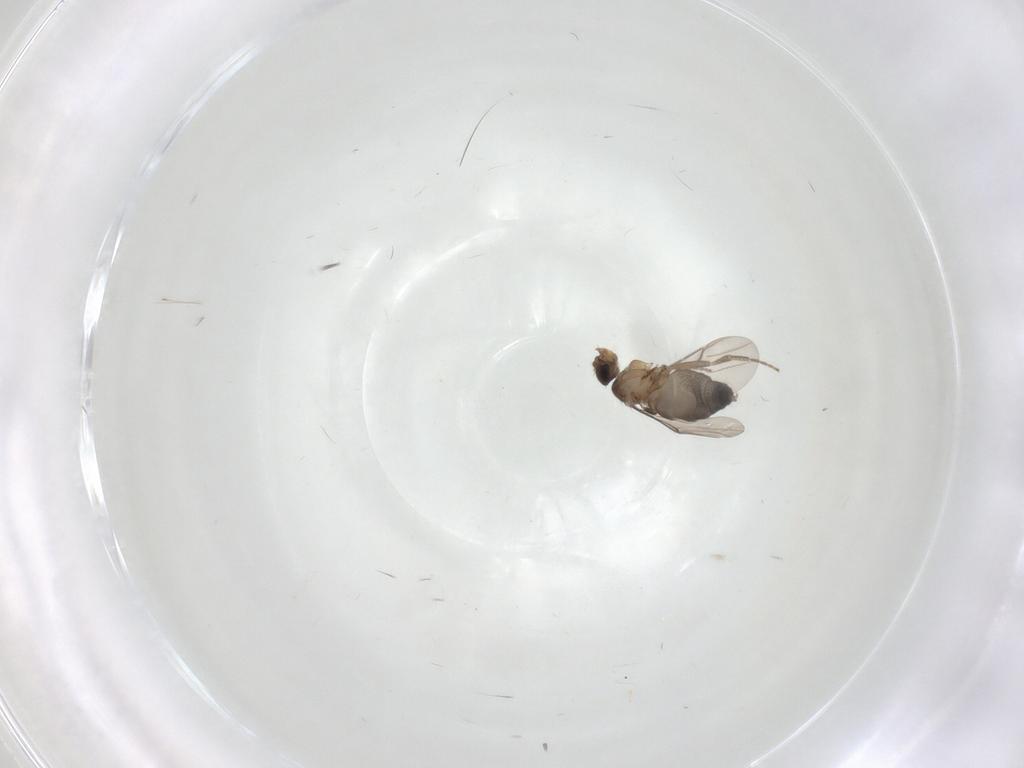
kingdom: Animalia
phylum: Arthropoda
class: Insecta
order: Diptera
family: Phoridae
